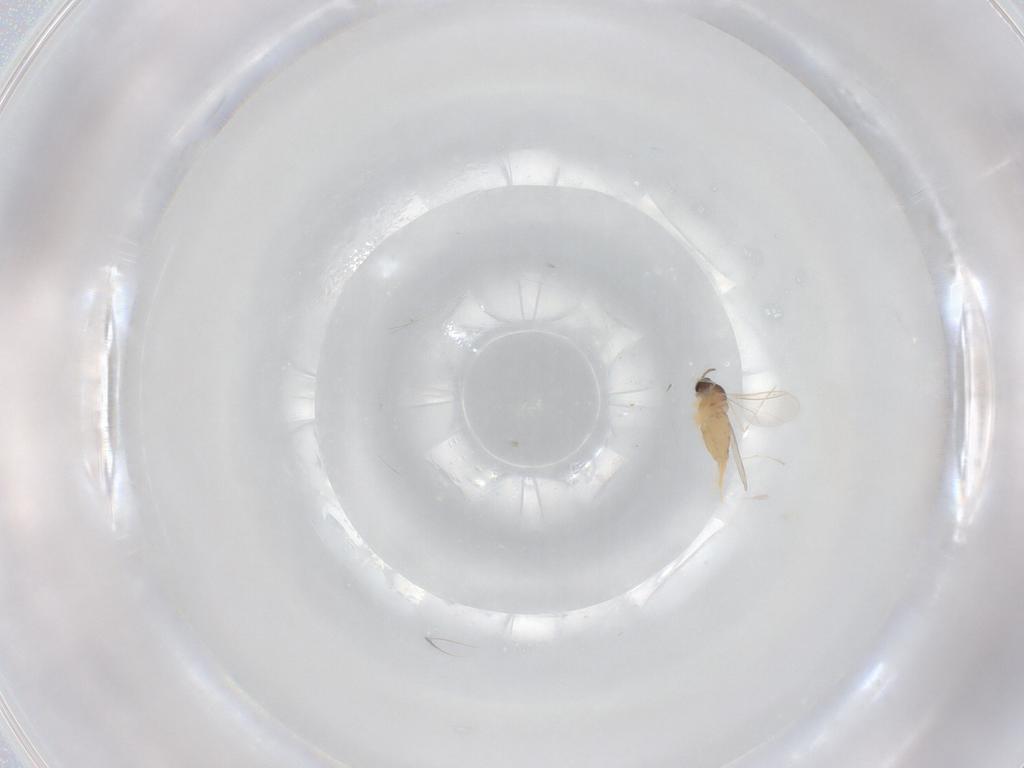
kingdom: Animalia
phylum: Arthropoda
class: Insecta
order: Diptera
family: Cecidomyiidae
